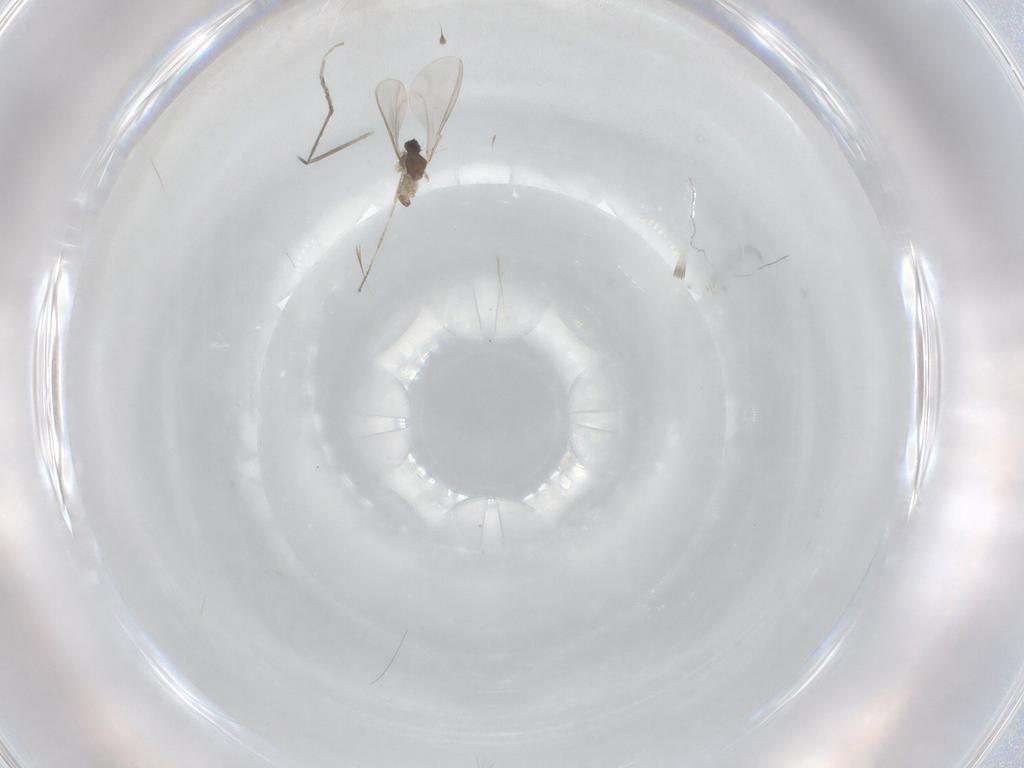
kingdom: Animalia
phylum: Arthropoda
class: Insecta
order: Diptera
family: Cecidomyiidae
